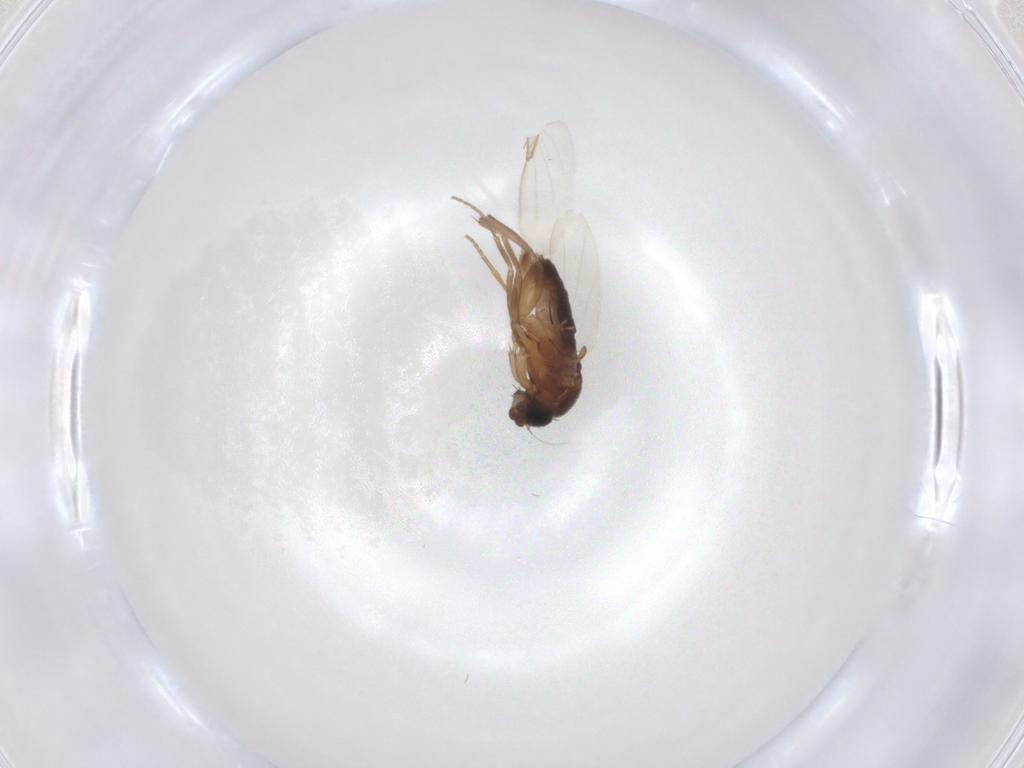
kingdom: Animalia
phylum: Arthropoda
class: Insecta
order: Diptera
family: Phoridae
